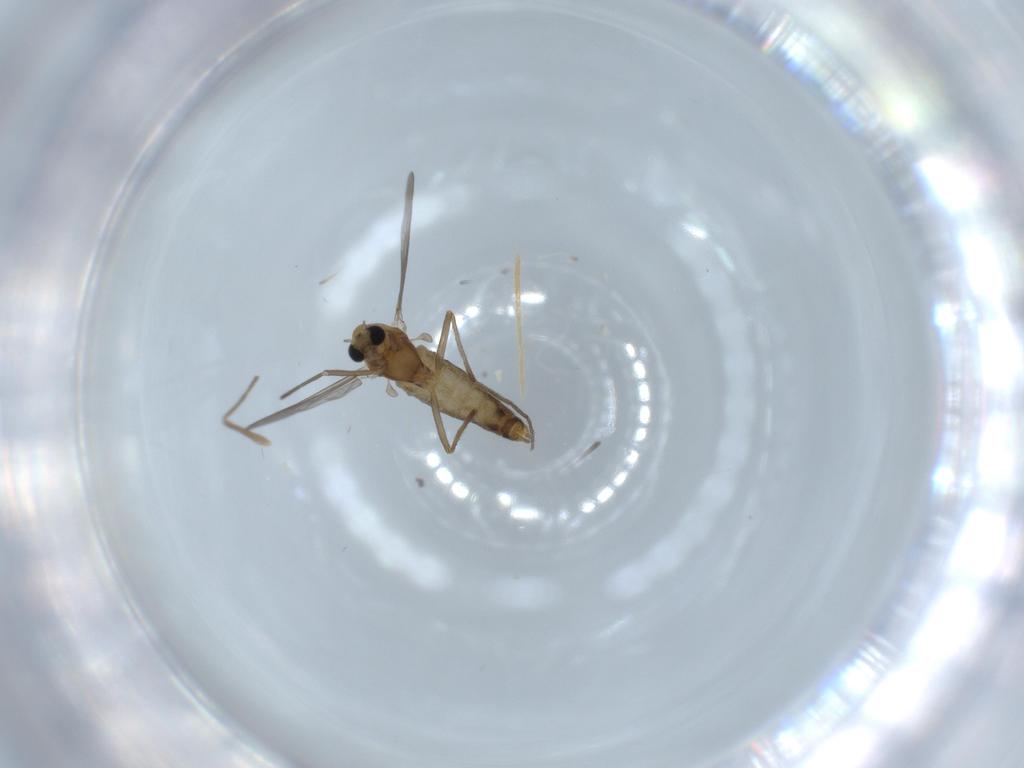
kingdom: Animalia
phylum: Arthropoda
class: Insecta
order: Diptera
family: Chironomidae
